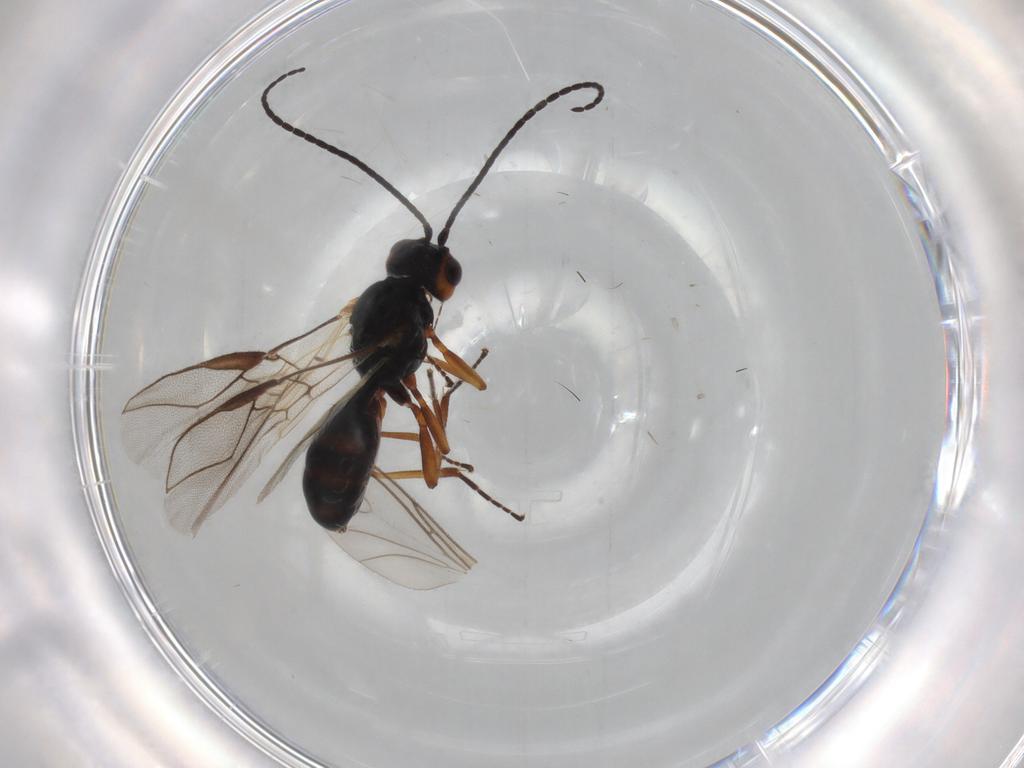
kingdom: Animalia
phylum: Arthropoda
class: Insecta
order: Hymenoptera
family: Braconidae
